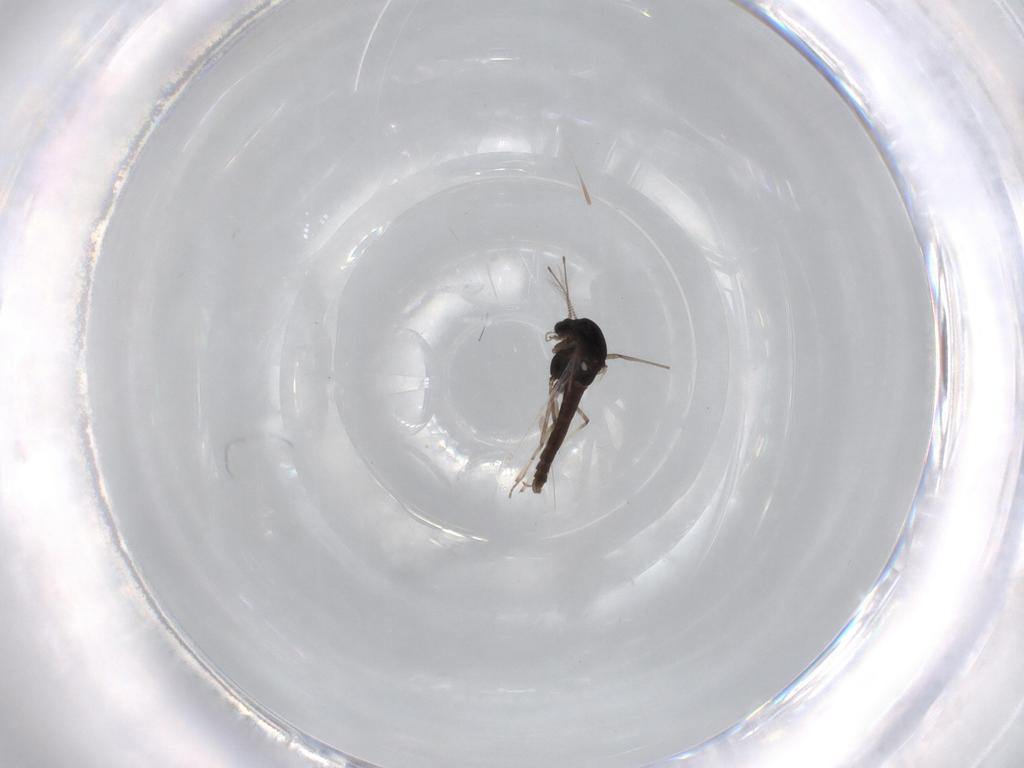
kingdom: Animalia
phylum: Arthropoda
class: Insecta
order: Diptera
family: Chironomidae
